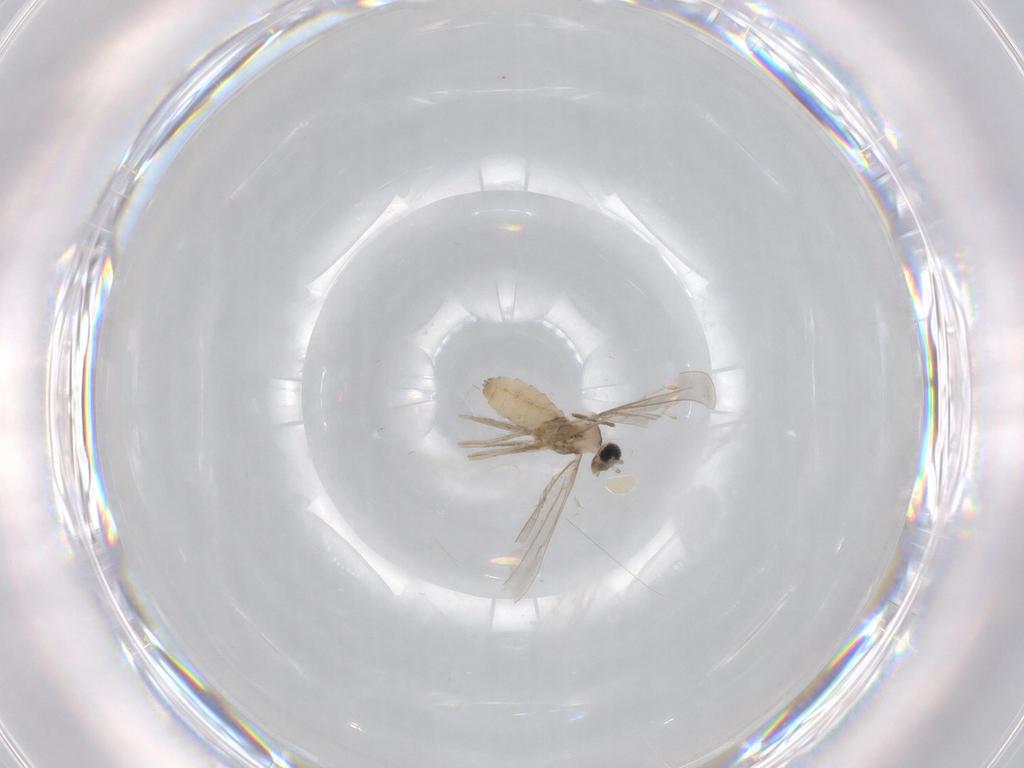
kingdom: Animalia
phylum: Arthropoda
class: Insecta
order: Diptera
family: Cecidomyiidae
